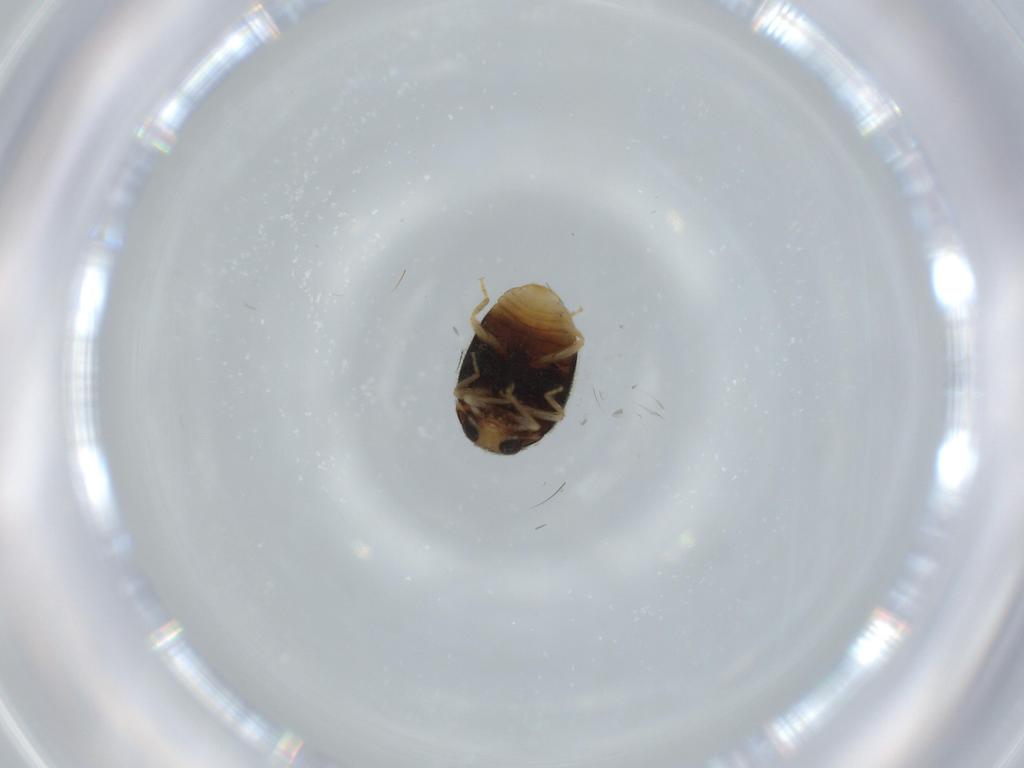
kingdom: Animalia
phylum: Arthropoda
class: Insecta
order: Coleoptera
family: Coccinellidae
